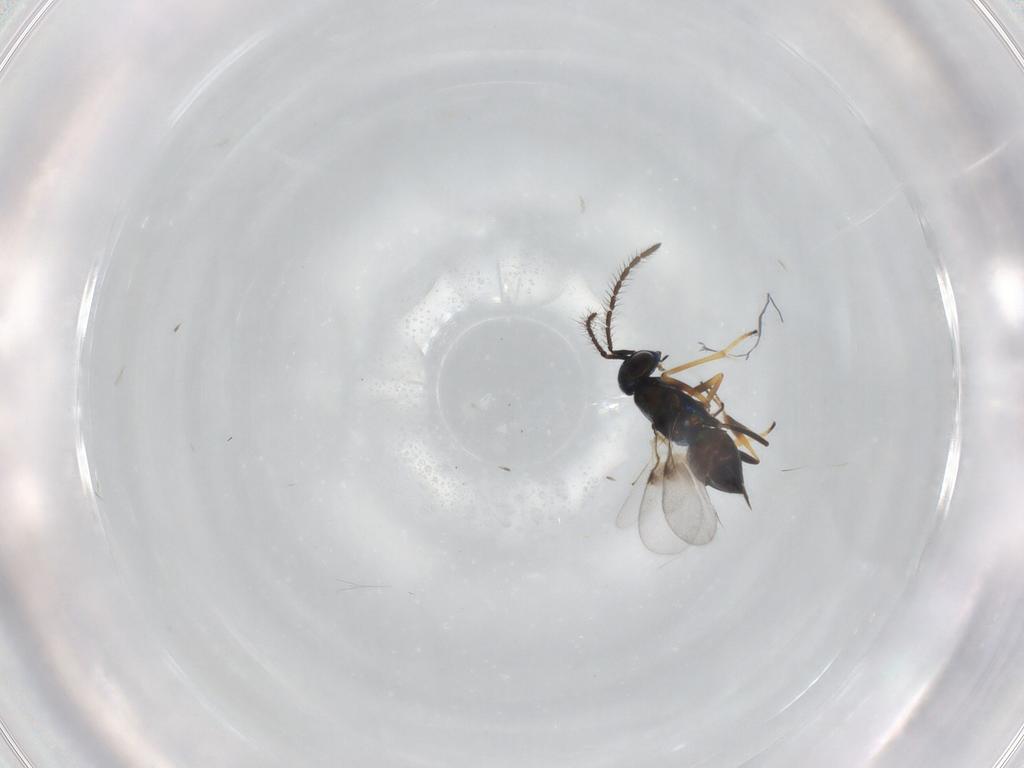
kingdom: Animalia
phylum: Arthropoda
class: Insecta
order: Hymenoptera
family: Encyrtidae
